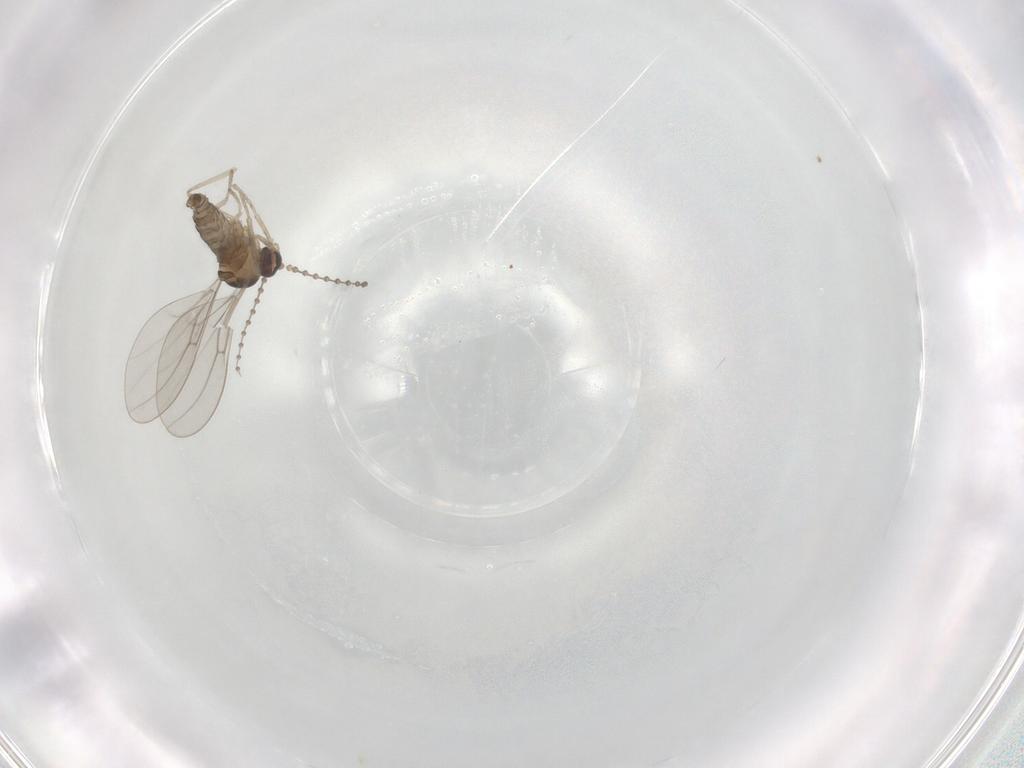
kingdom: Animalia
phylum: Arthropoda
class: Insecta
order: Diptera
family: Cecidomyiidae
